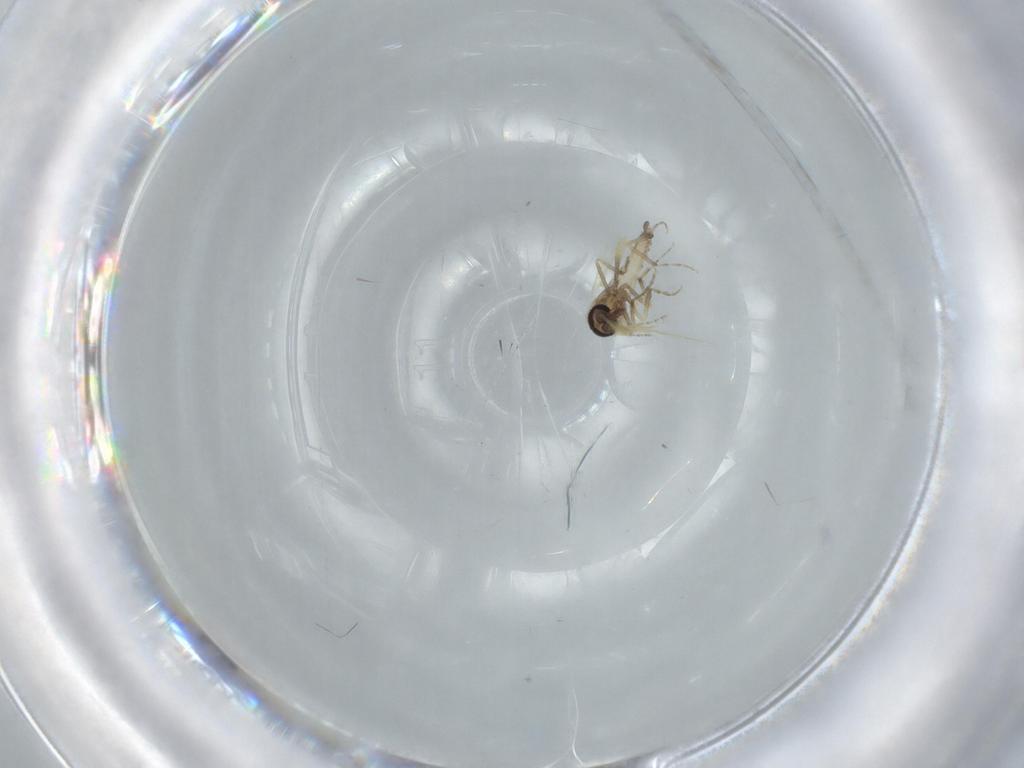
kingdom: Animalia
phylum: Arthropoda
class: Insecta
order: Diptera
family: Ceratopogonidae
